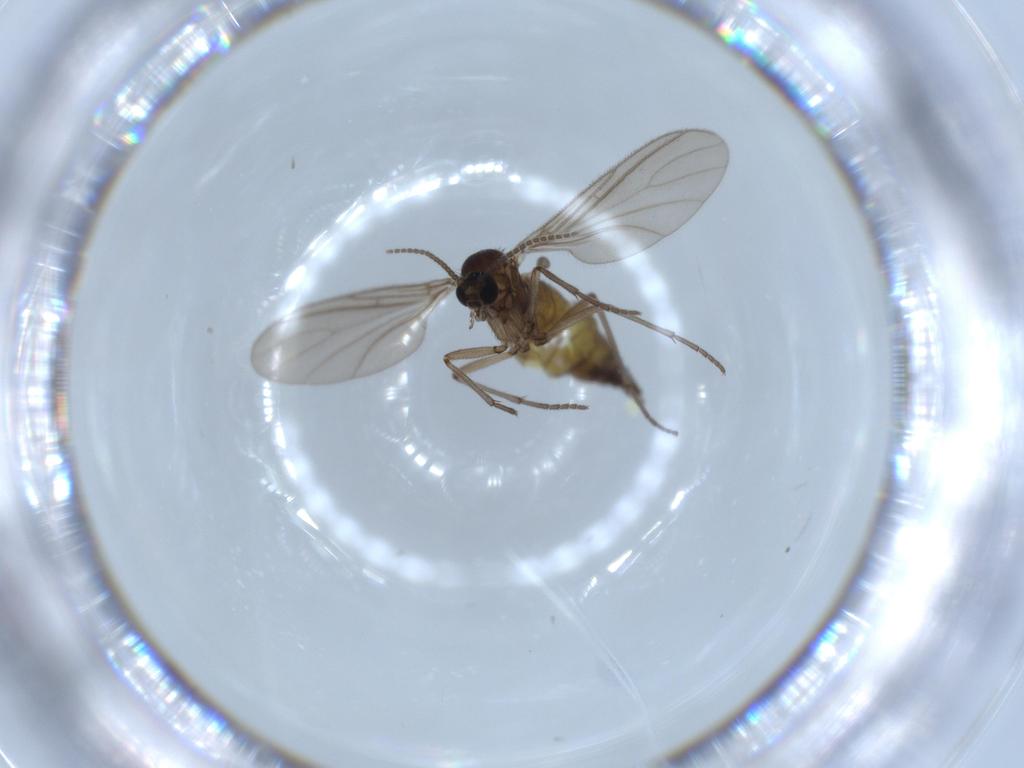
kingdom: Animalia
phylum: Arthropoda
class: Insecta
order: Diptera
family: Sciaridae
